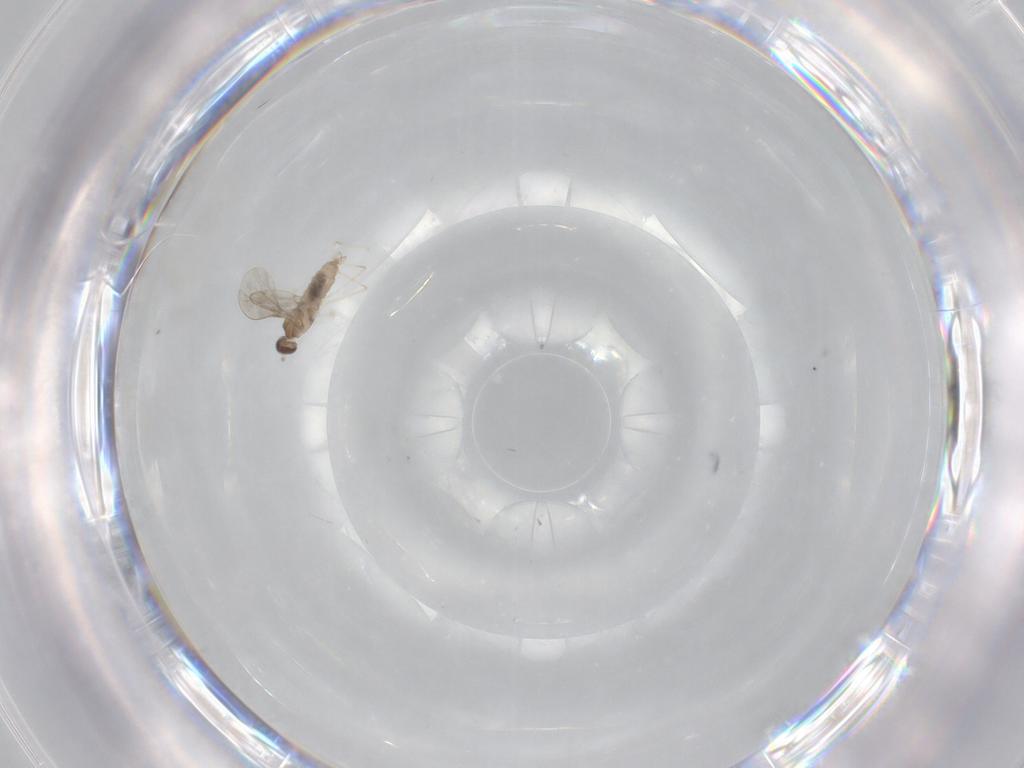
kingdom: Animalia
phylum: Arthropoda
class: Insecta
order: Diptera
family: Cecidomyiidae
